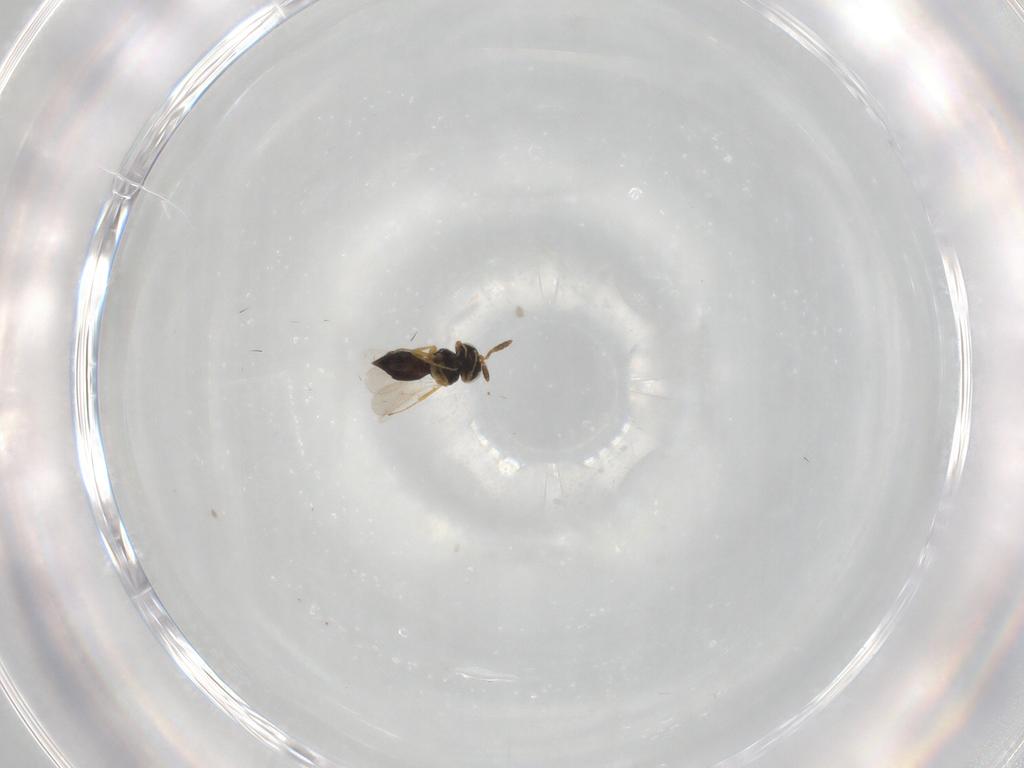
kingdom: Animalia
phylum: Arthropoda
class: Insecta
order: Hymenoptera
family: Scelionidae
